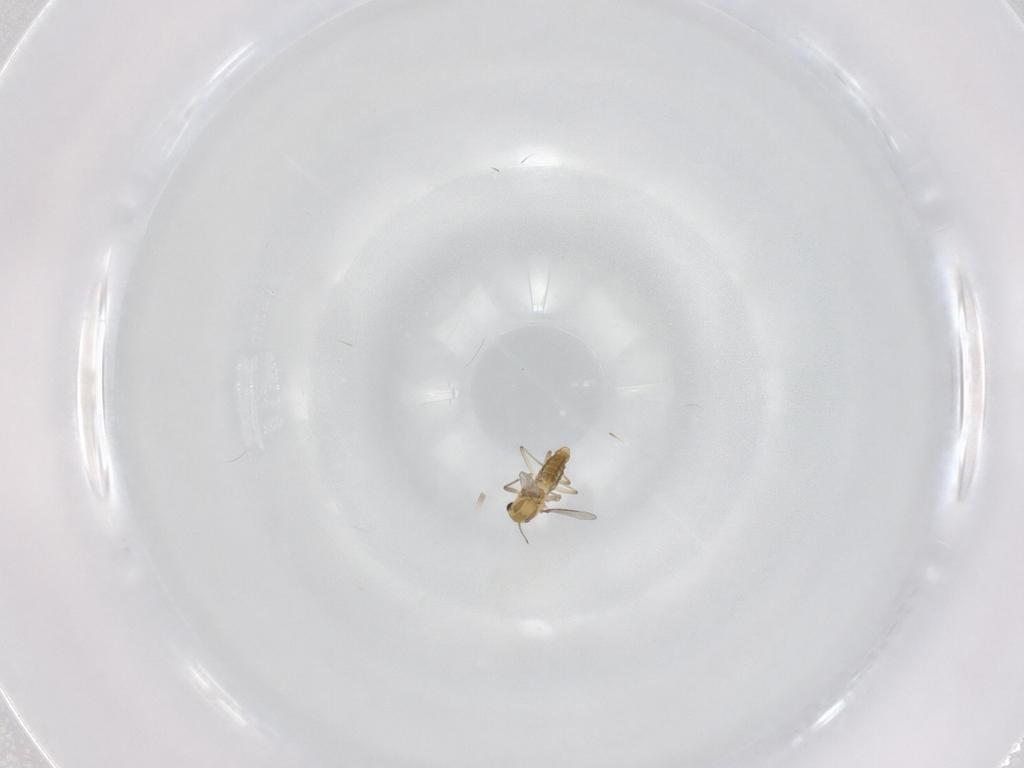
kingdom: Animalia
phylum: Arthropoda
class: Insecta
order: Diptera
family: Chironomidae
